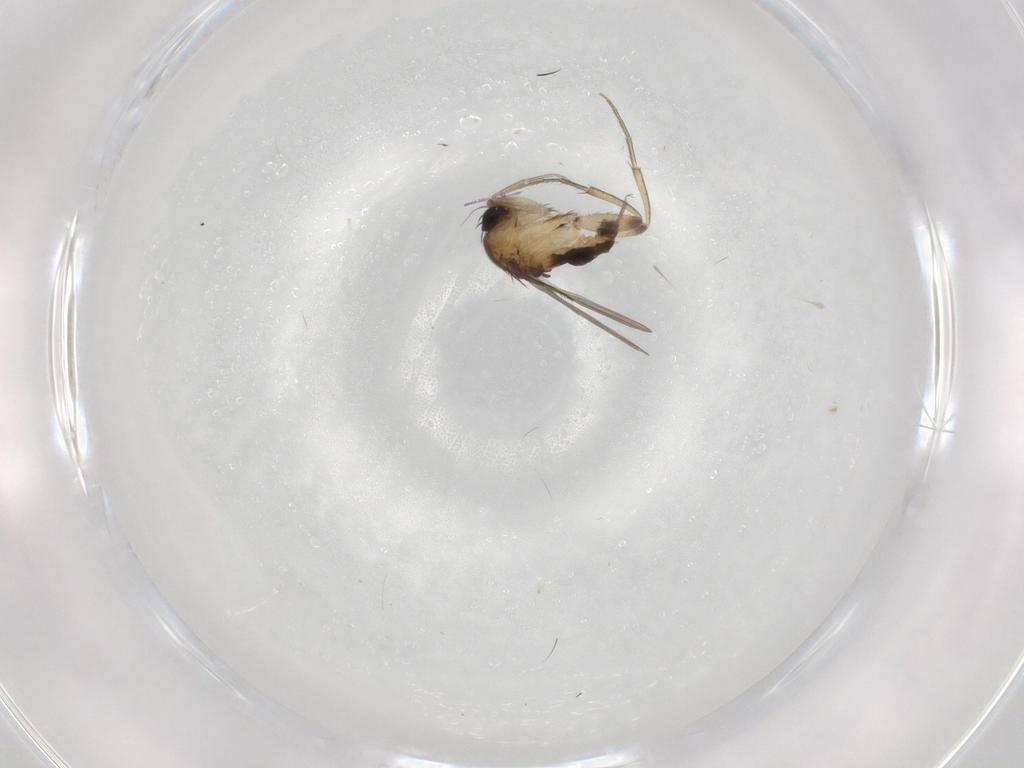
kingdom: Animalia
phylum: Arthropoda
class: Insecta
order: Diptera
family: Phoridae
